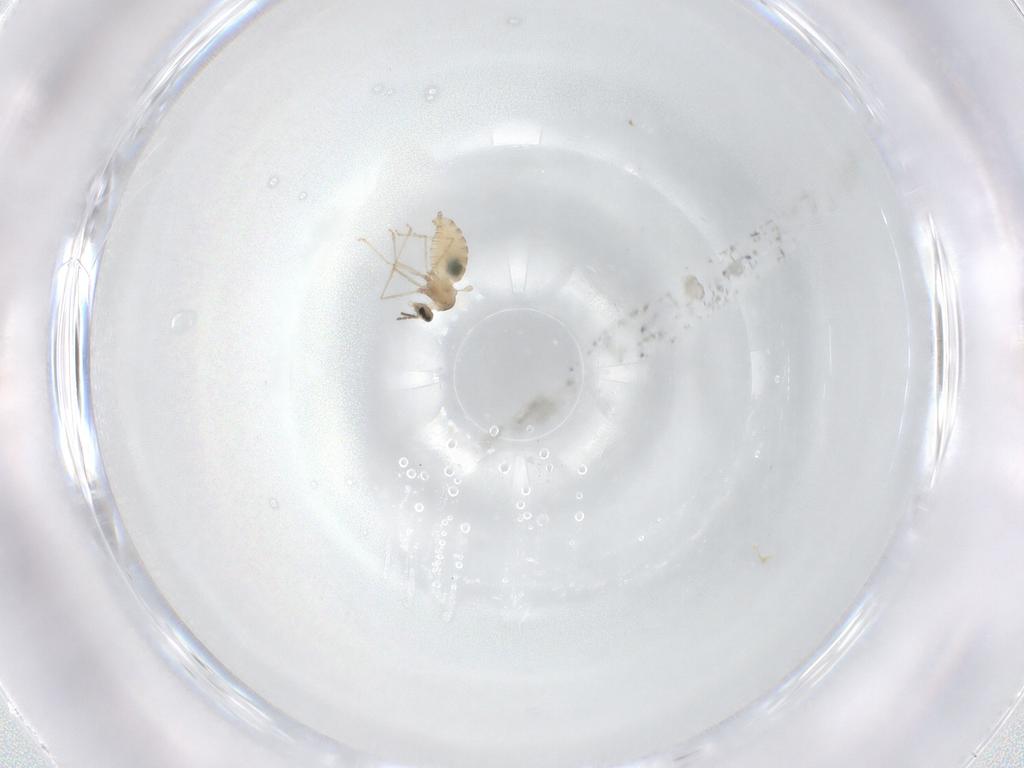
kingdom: Animalia
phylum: Arthropoda
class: Insecta
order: Diptera
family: Cecidomyiidae
